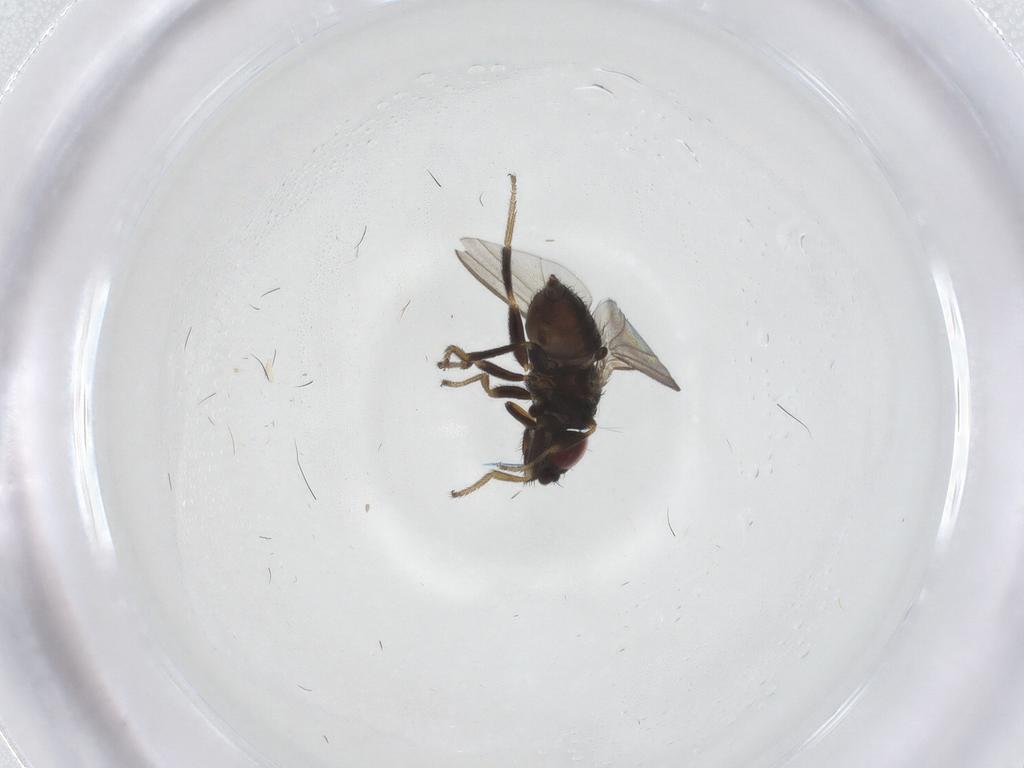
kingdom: Animalia
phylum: Arthropoda
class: Insecta
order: Diptera
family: Milichiidae
